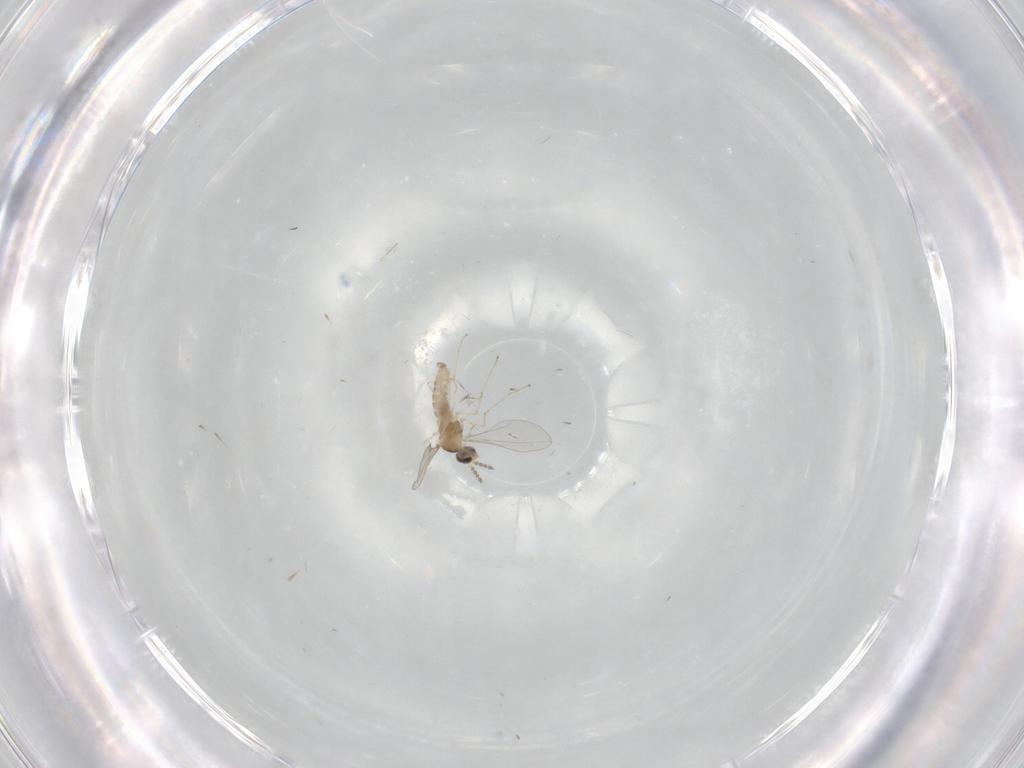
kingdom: Animalia
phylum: Arthropoda
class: Insecta
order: Diptera
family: Cecidomyiidae
